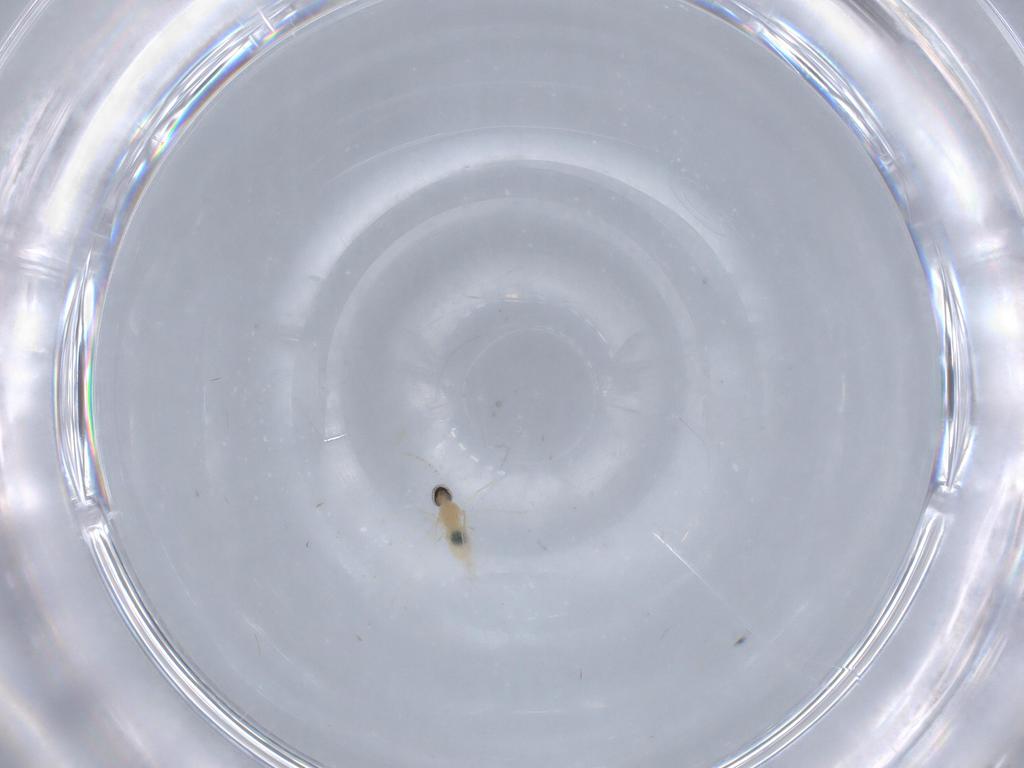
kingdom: Animalia
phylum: Arthropoda
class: Insecta
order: Diptera
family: Cecidomyiidae
